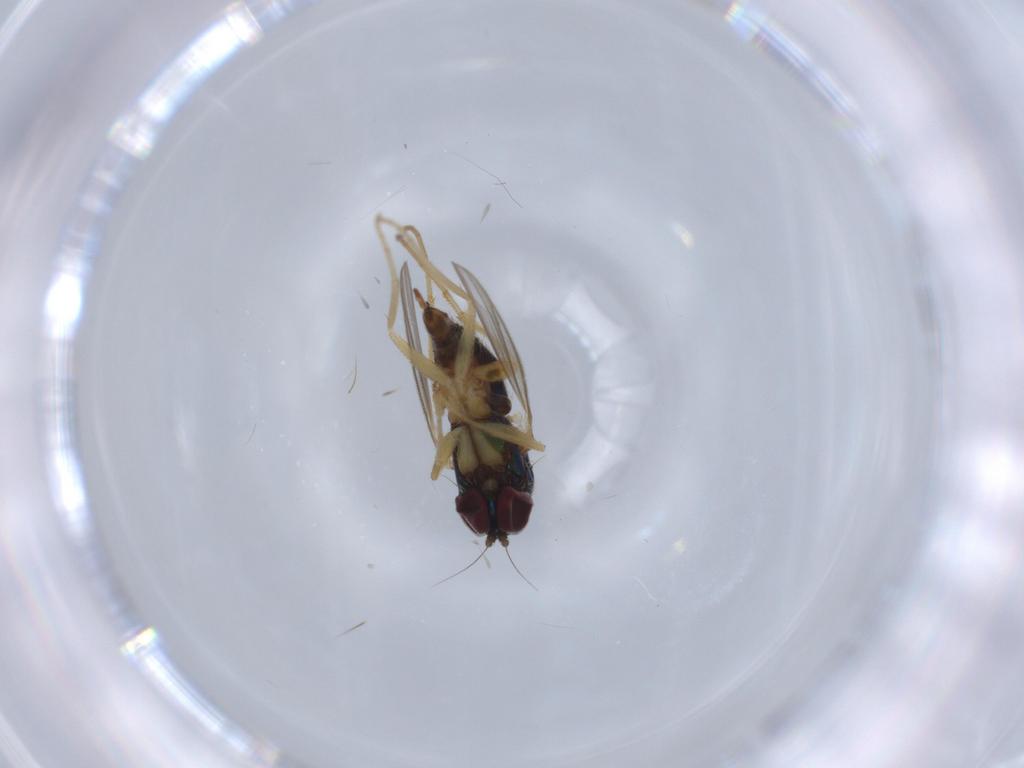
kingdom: Animalia
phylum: Arthropoda
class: Insecta
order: Diptera
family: Dolichopodidae
